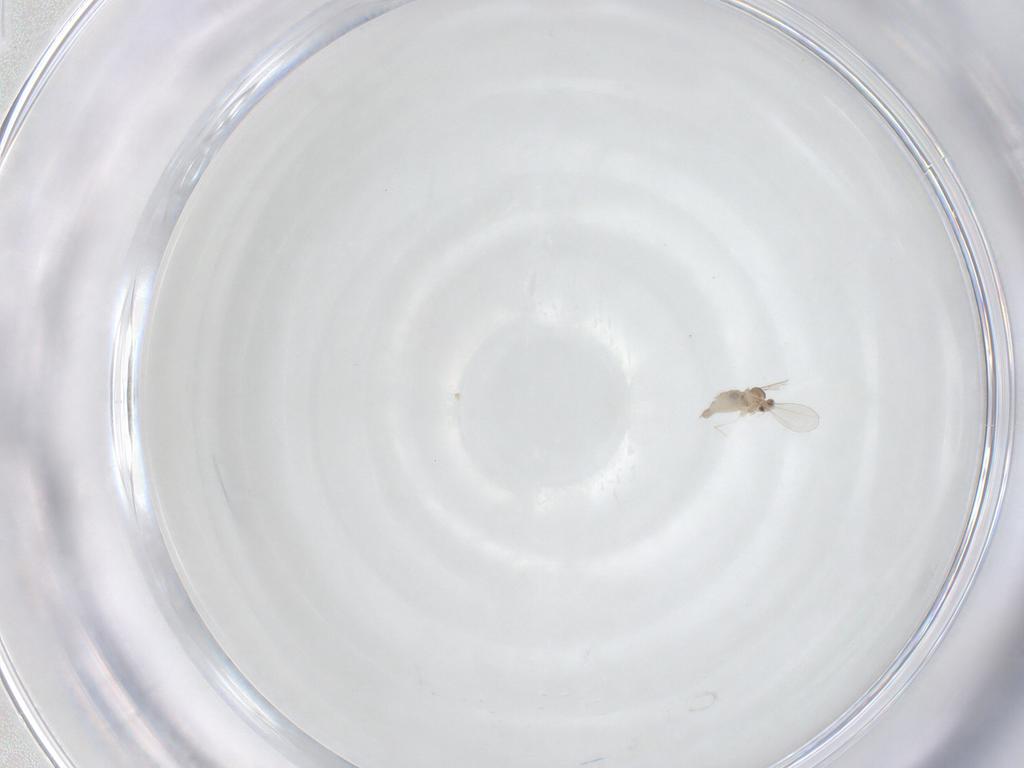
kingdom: Animalia
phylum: Arthropoda
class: Insecta
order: Diptera
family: Cecidomyiidae
